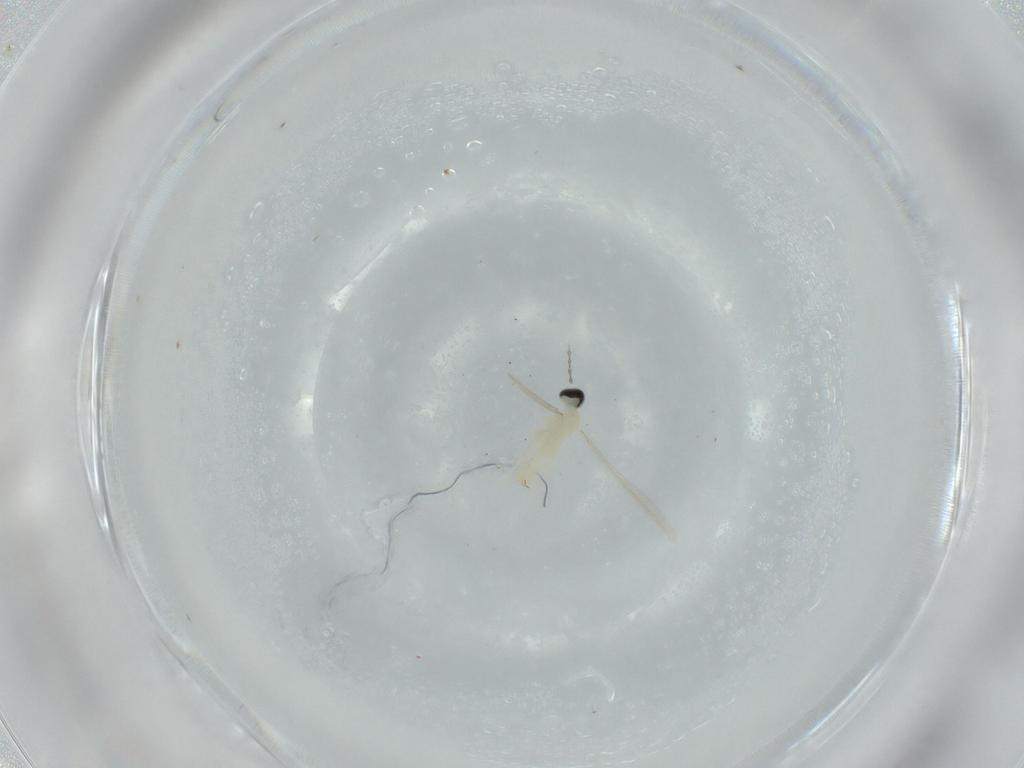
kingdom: Animalia
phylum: Arthropoda
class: Insecta
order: Diptera
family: Cecidomyiidae
